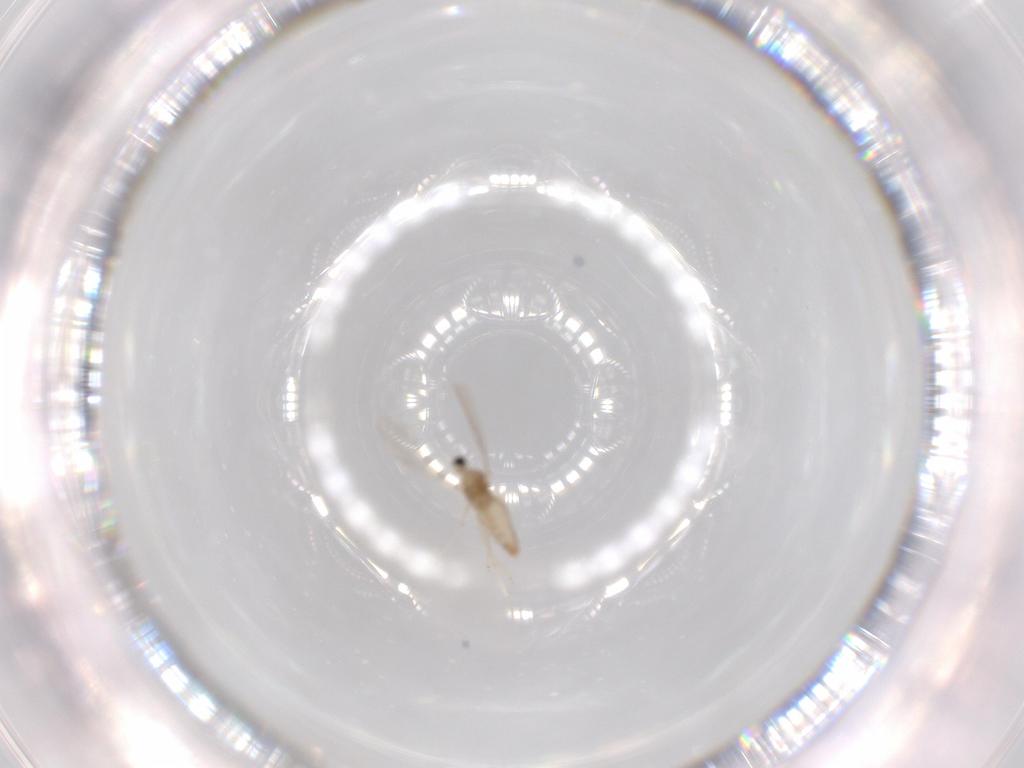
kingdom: Animalia
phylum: Arthropoda
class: Insecta
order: Diptera
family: Cecidomyiidae
